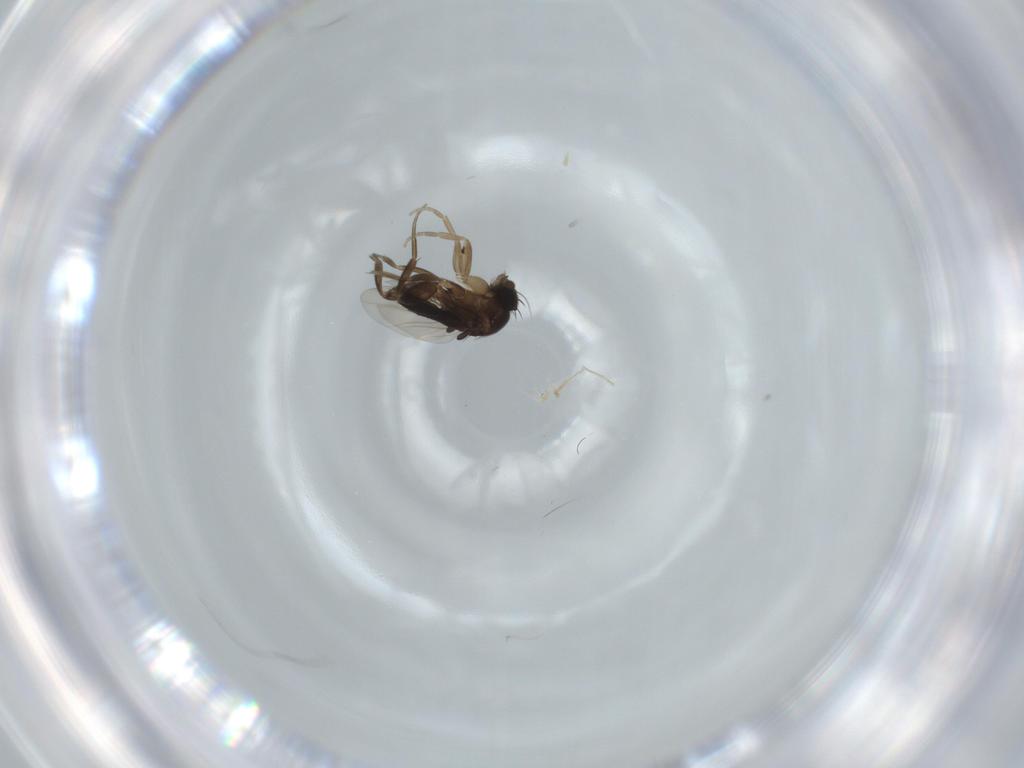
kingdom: Animalia
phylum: Arthropoda
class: Insecta
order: Diptera
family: Phoridae
